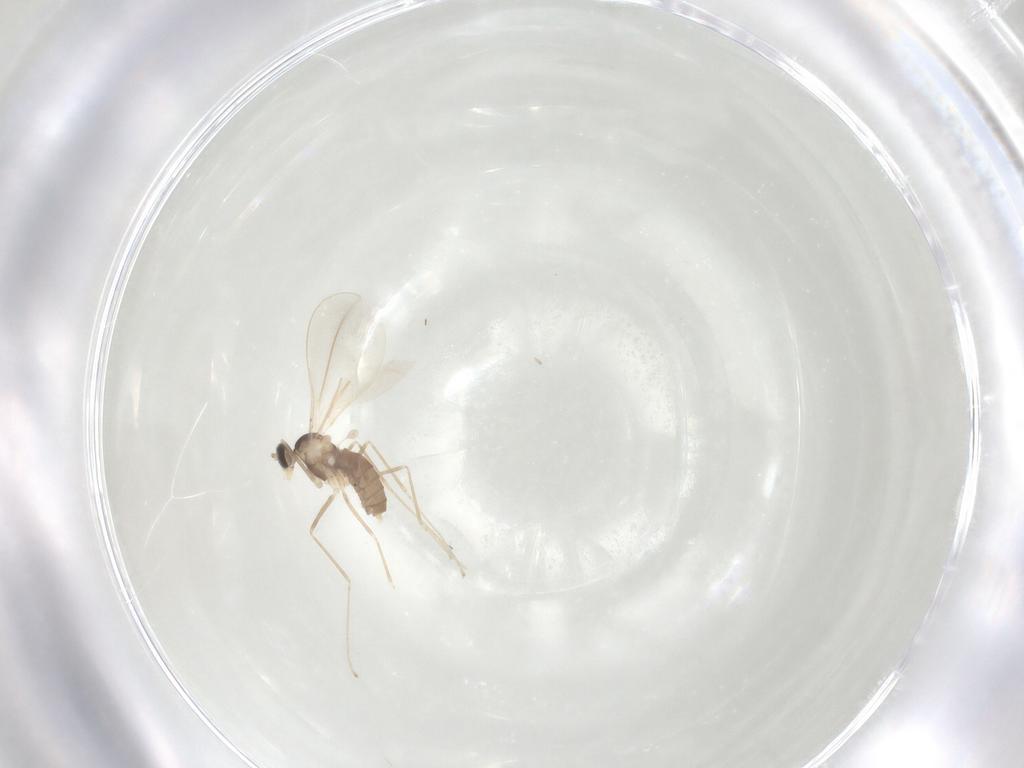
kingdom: Animalia
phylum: Arthropoda
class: Insecta
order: Diptera
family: Cecidomyiidae
